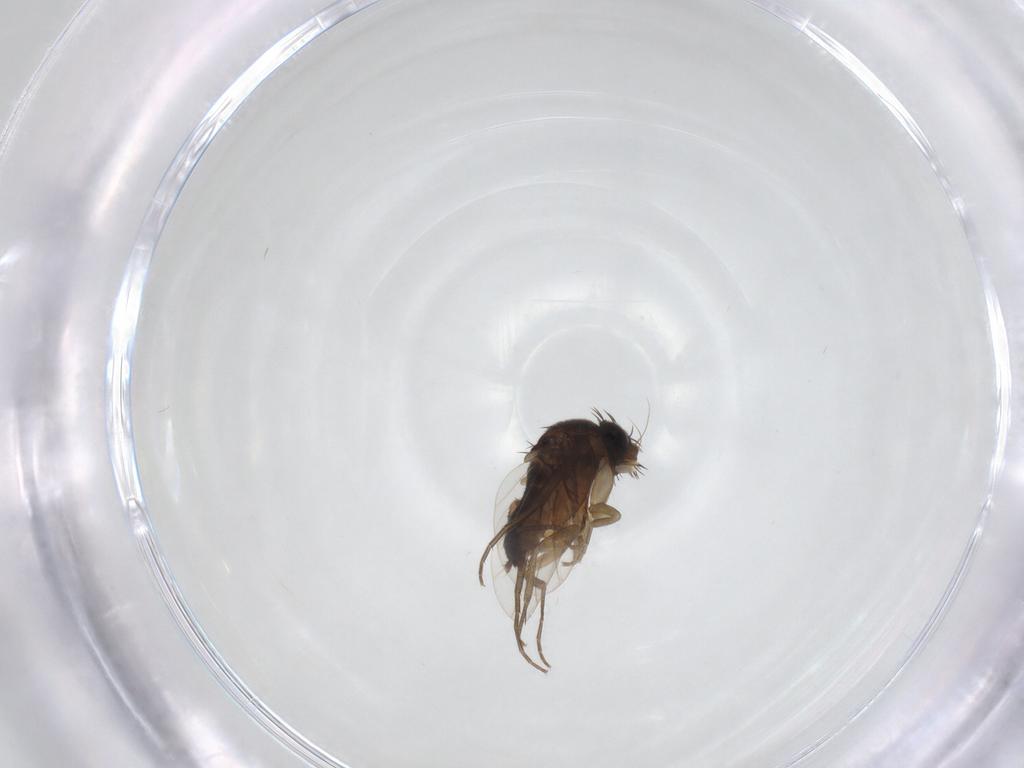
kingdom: Animalia
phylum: Arthropoda
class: Insecta
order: Diptera
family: Phoridae
